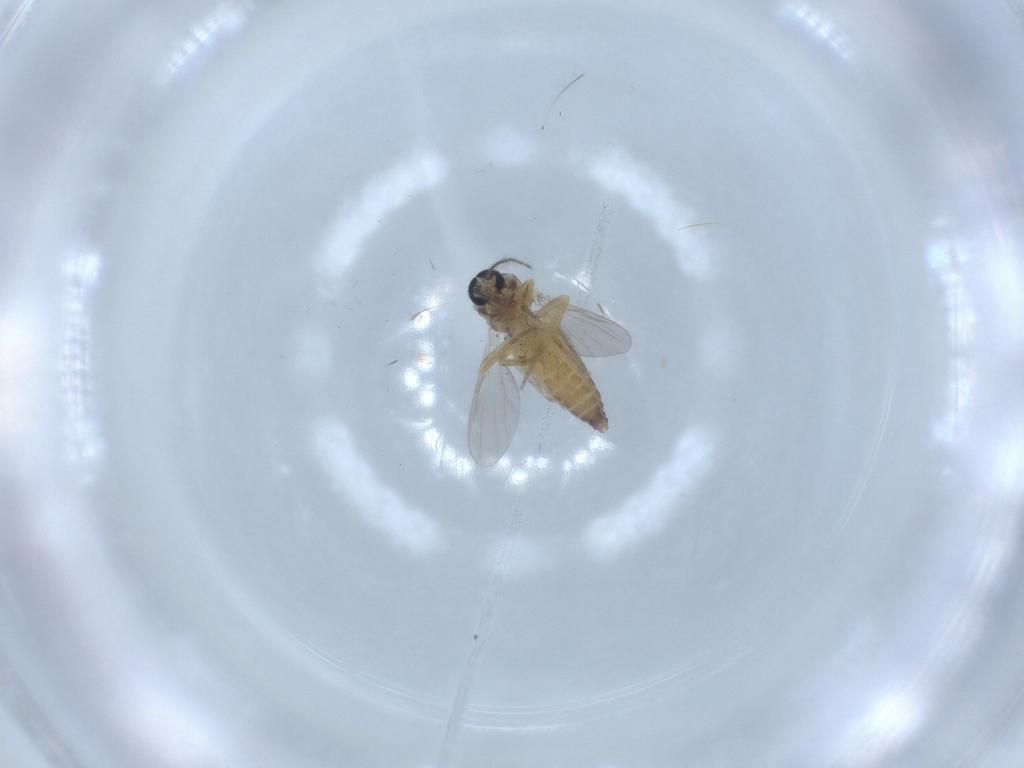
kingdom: Animalia
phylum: Arthropoda
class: Insecta
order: Diptera
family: Ceratopogonidae
